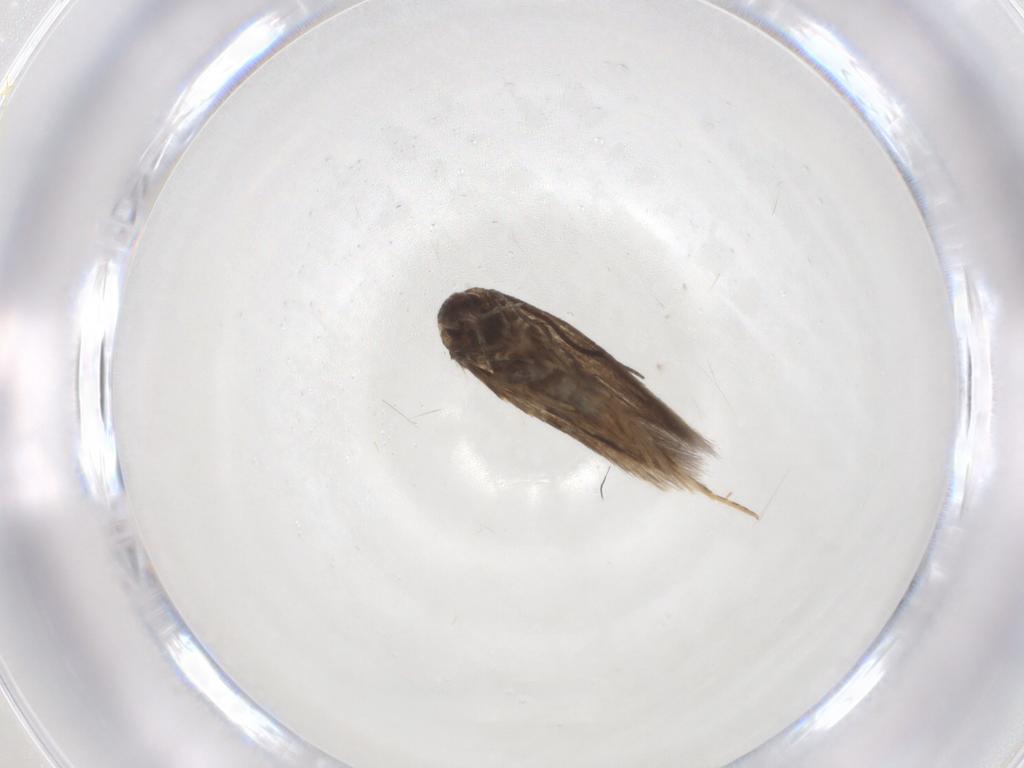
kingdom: Animalia
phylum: Arthropoda
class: Insecta
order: Lepidoptera
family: Elachistidae
